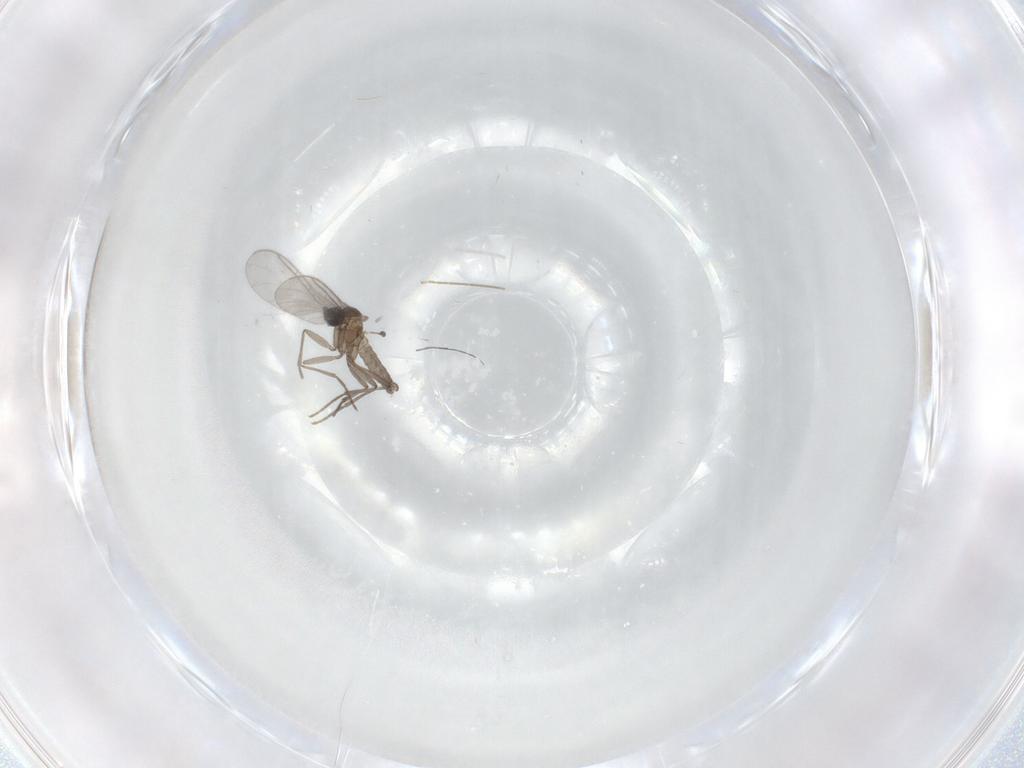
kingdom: Animalia
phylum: Arthropoda
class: Insecta
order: Diptera
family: Sciaridae
